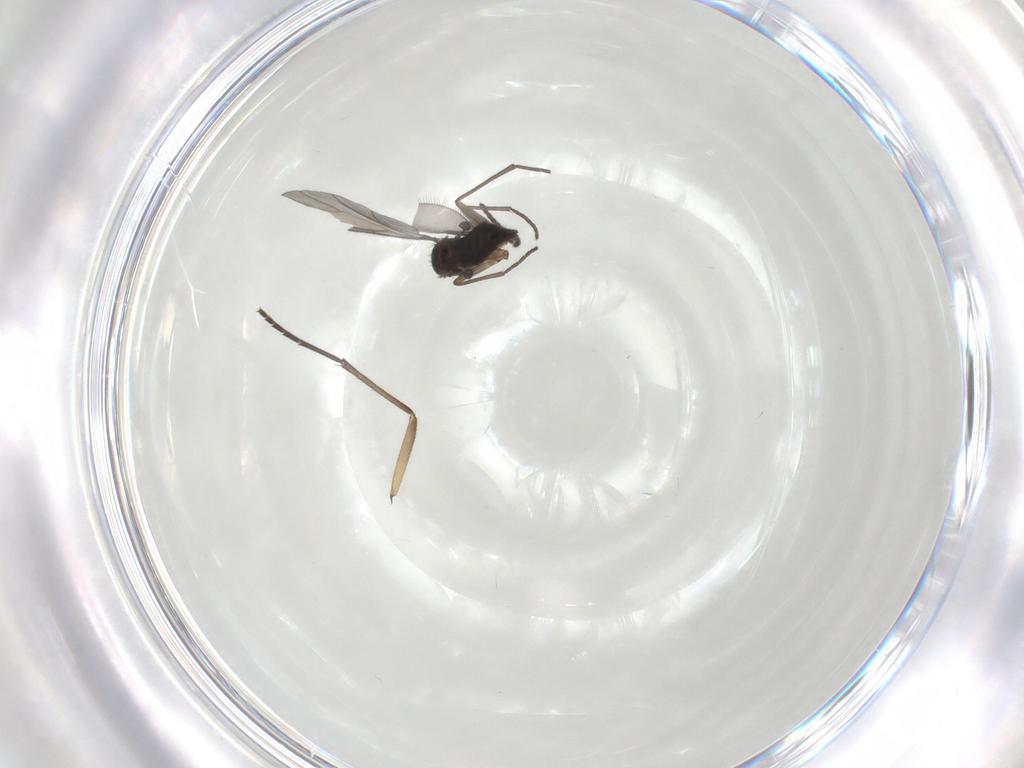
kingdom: Animalia
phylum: Arthropoda
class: Insecta
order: Diptera
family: Sciaridae
